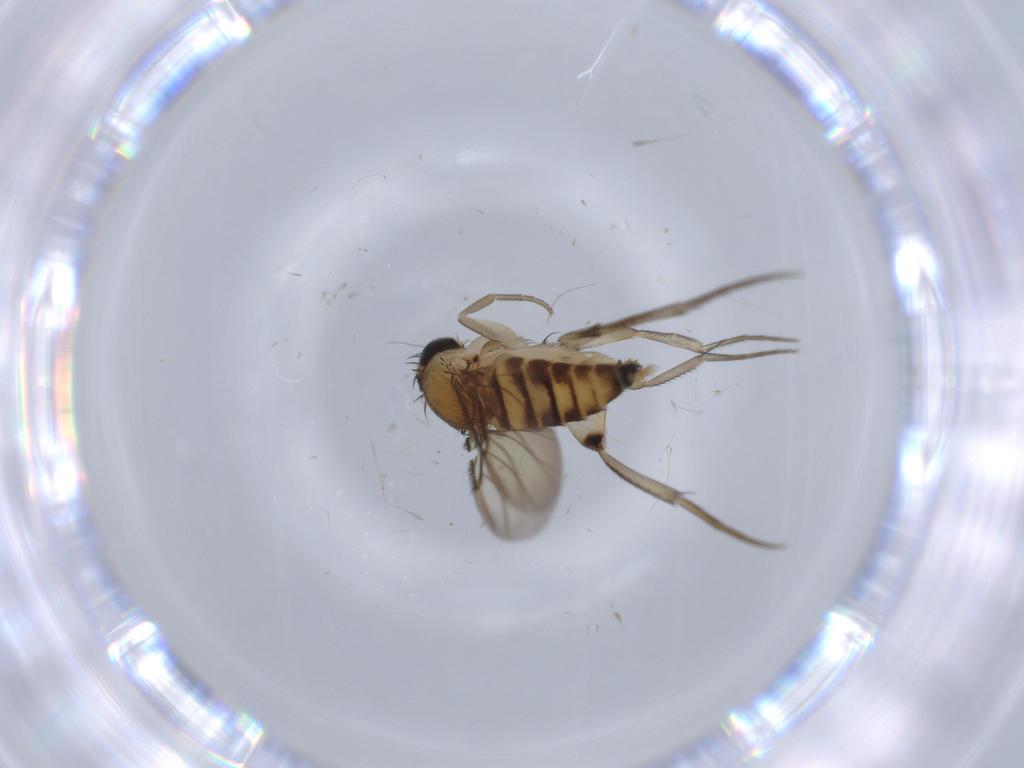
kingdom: Animalia
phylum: Arthropoda
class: Insecta
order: Diptera
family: Phoridae
